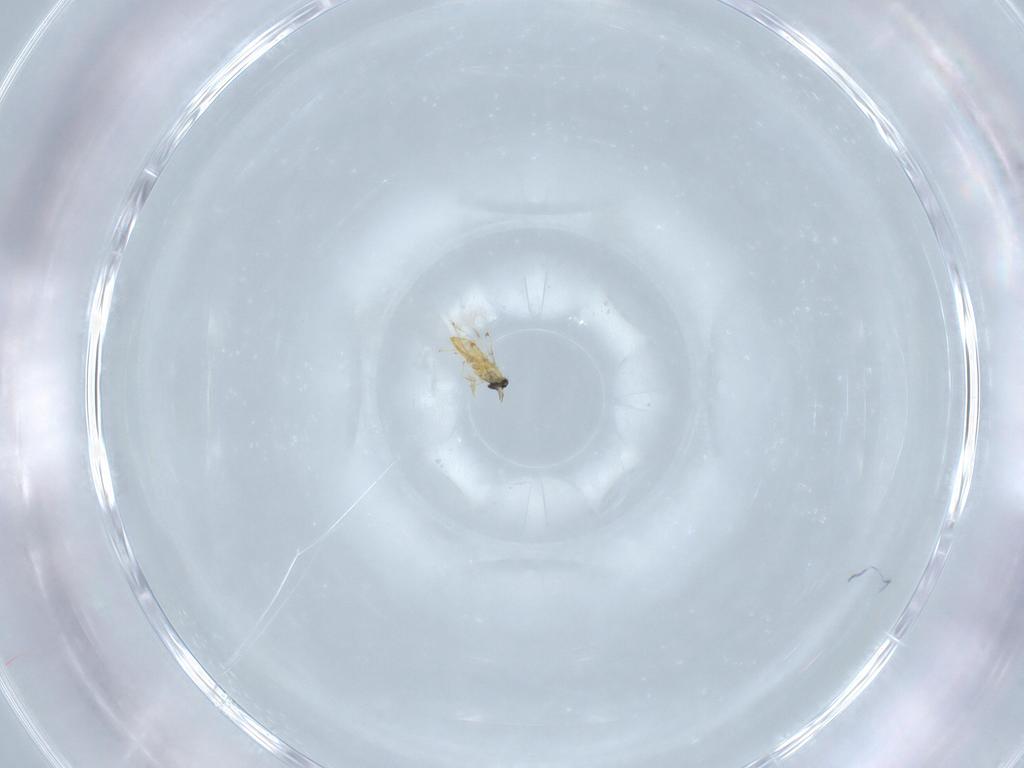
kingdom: Animalia
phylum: Arthropoda
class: Insecta
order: Hymenoptera
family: Trichogrammatidae
